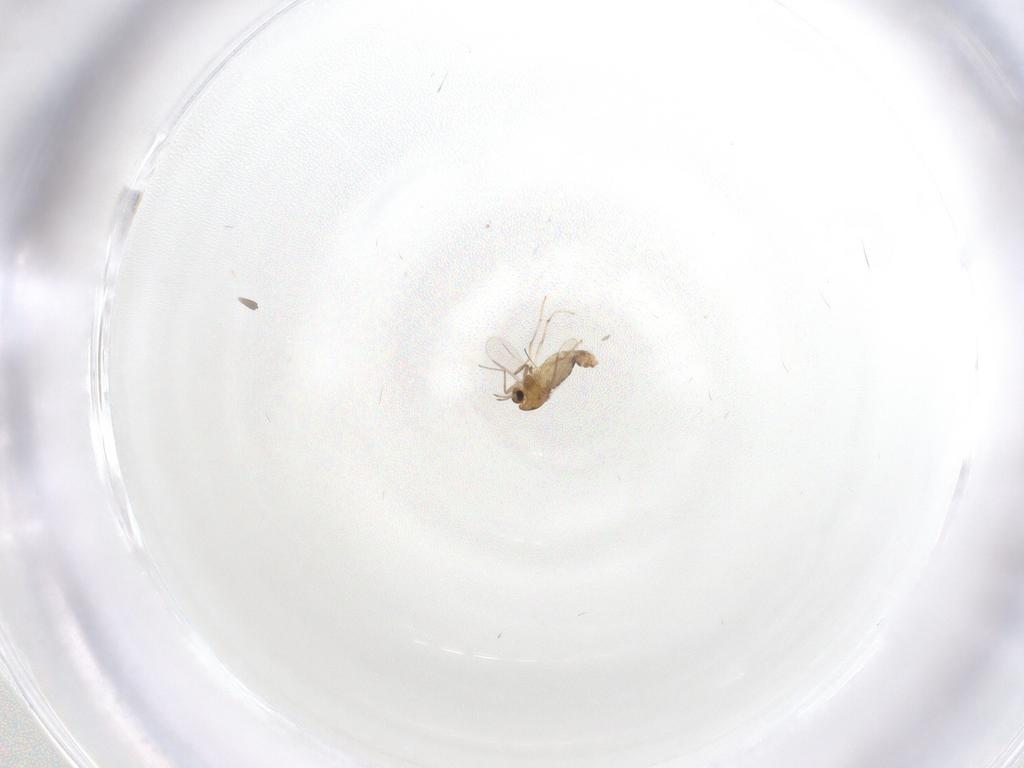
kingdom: Animalia
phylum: Arthropoda
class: Insecta
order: Diptera
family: Chironomidae
